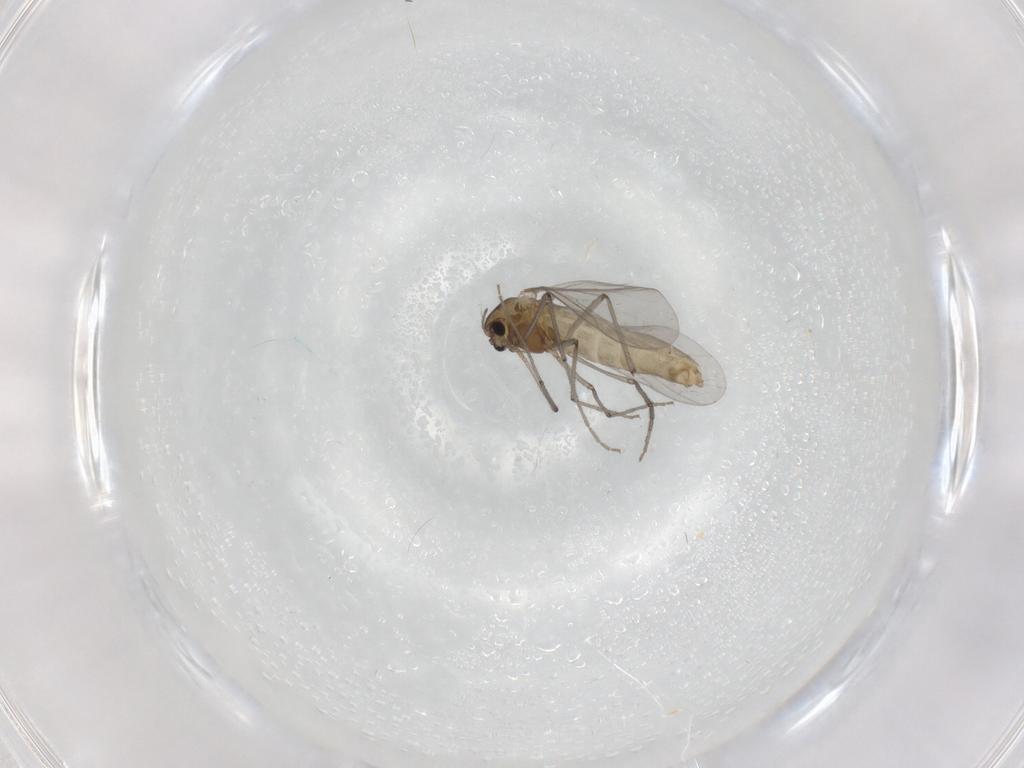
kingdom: Animalia
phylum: Arthropoda
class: Insecta
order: Diptera
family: Empididae
